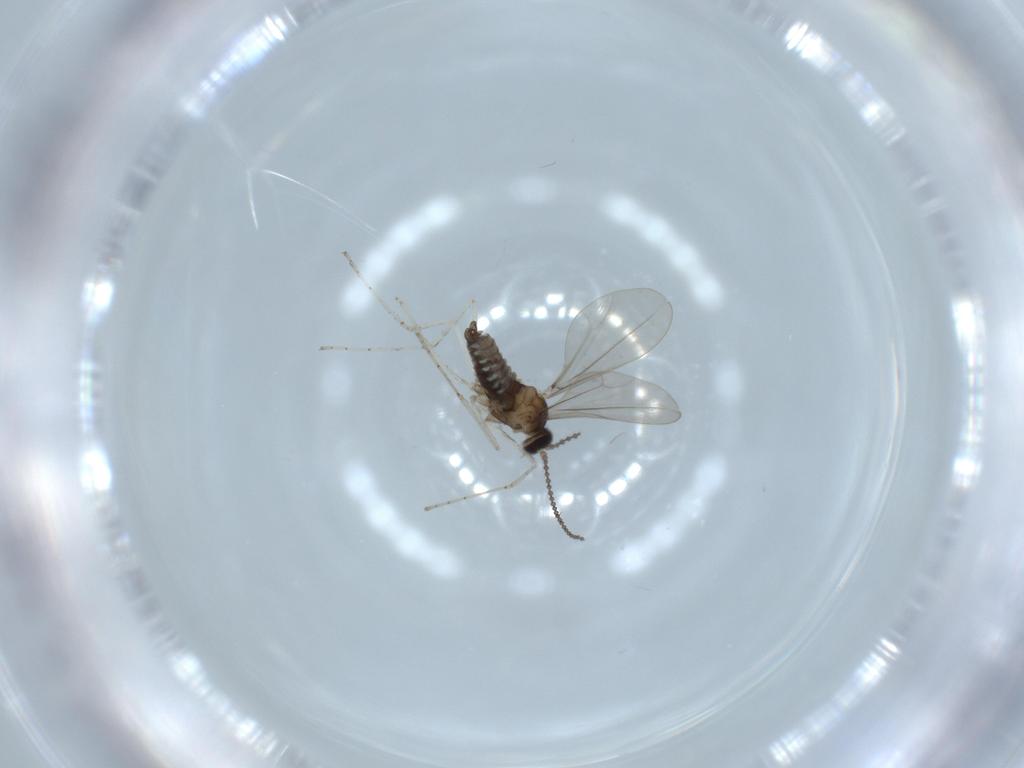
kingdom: Animalia
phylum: Arthropoda
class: Insecta
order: Diptera
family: Cecidomyiidae
